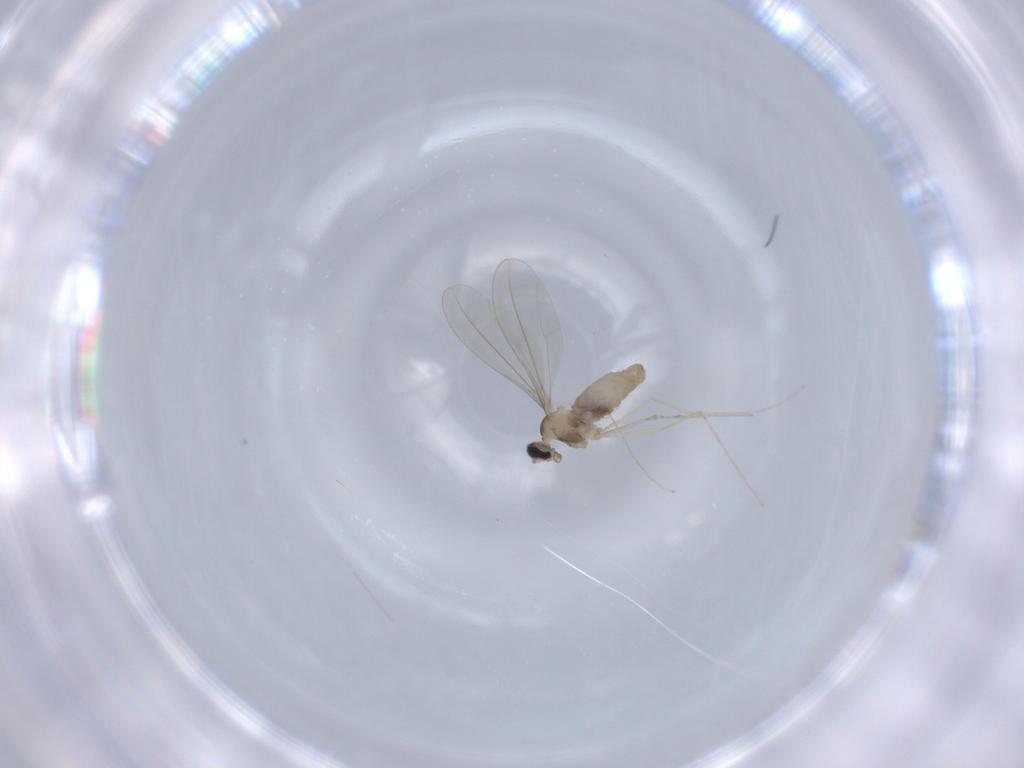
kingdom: Animalia
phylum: Arthropoda
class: Insecta
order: Diptera
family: Cecidomyiidae
